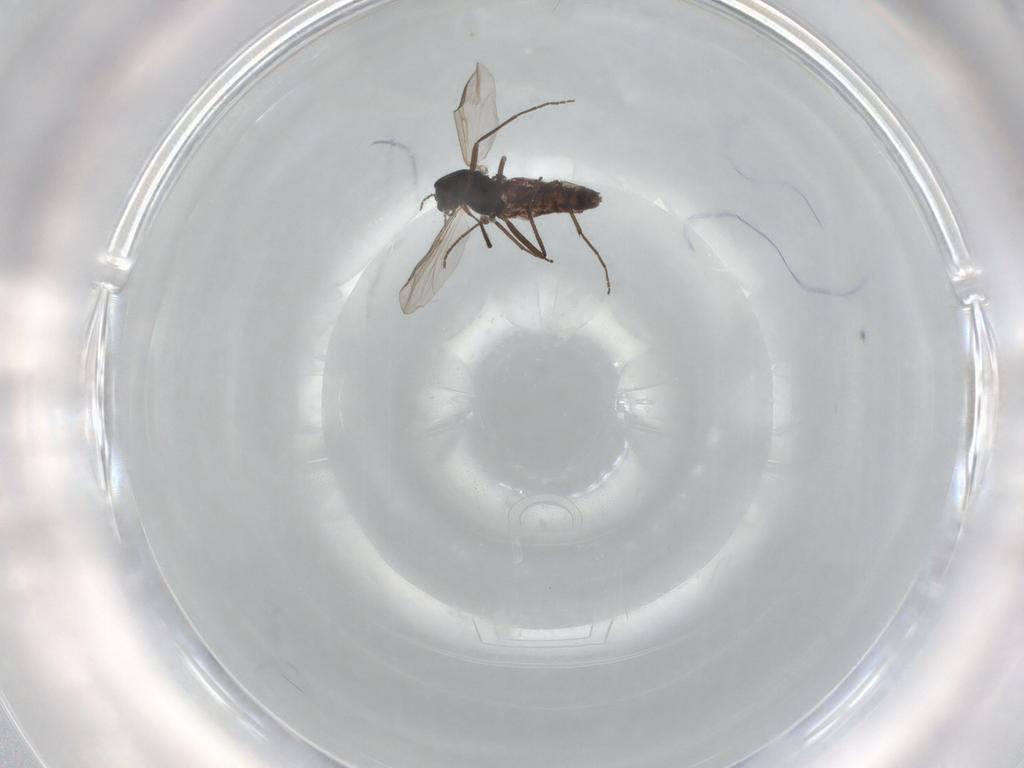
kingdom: Animalia
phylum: Arthropoda
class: Insecta
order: Diptera
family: Chironomidae
